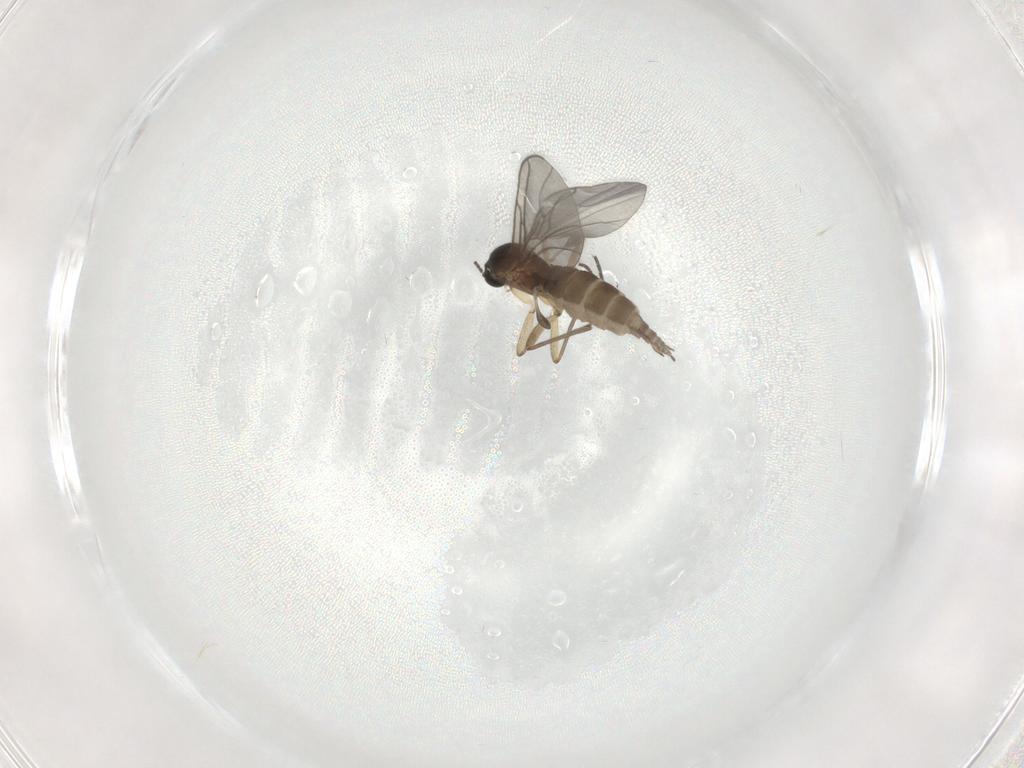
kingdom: Animalia
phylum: Arthropoda
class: Insecta
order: Diptera
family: Sciaridae
